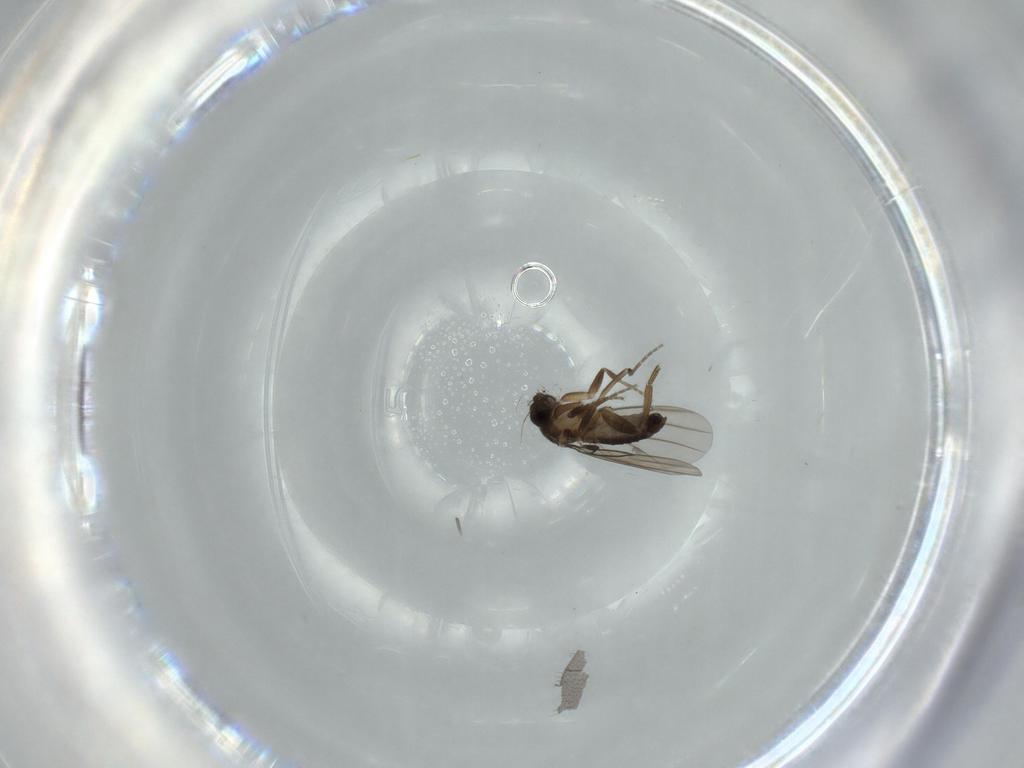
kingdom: Animalia
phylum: Arthropoda
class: Insecta
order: Diptera
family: Sciaridae
